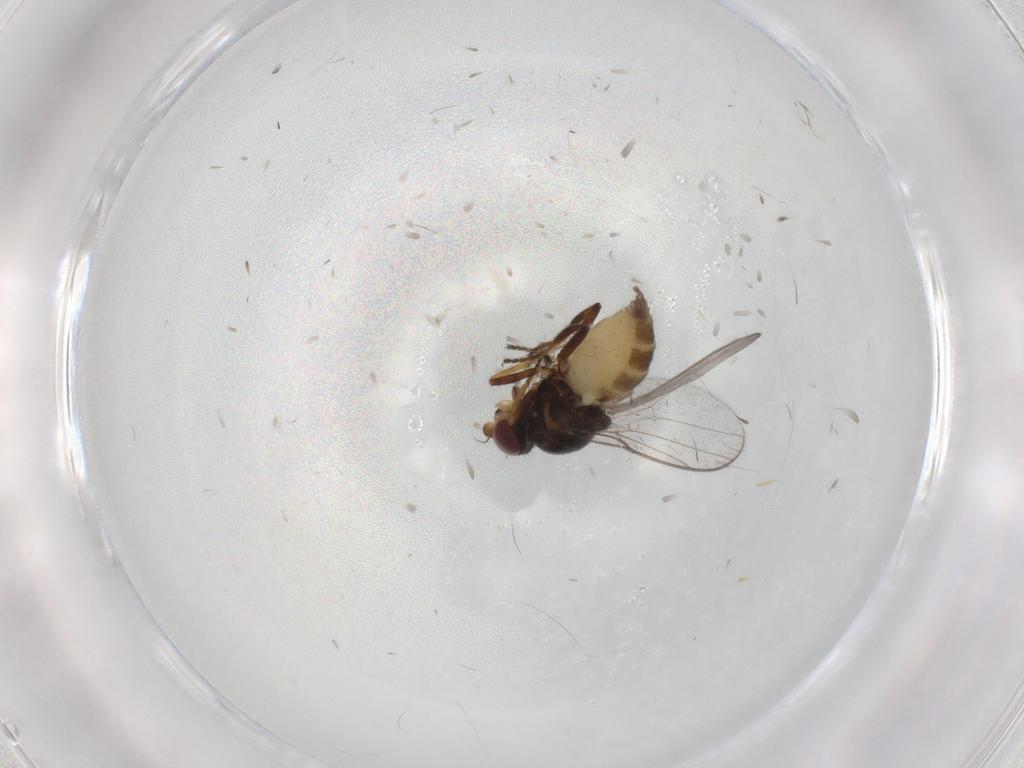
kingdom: Animalia
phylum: Arthropoda
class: Insecta
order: Diptera
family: Chloropidae
